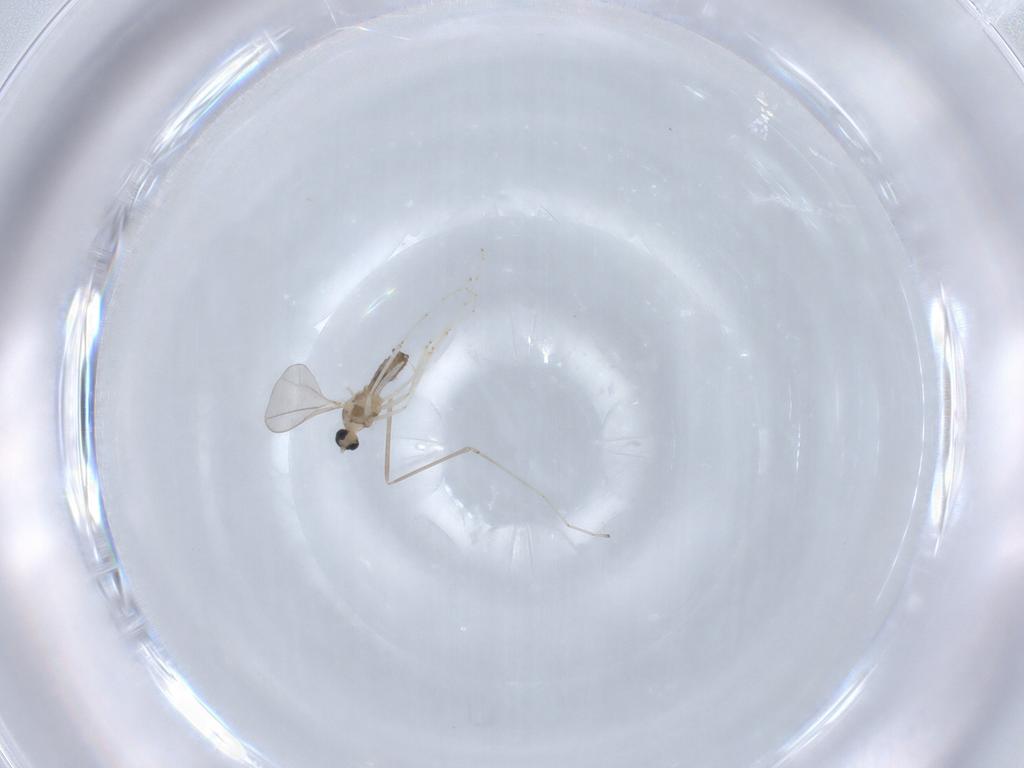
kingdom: Animalia
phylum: Arthropoda
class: Insecta
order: Diptera
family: Cecidomyiidae
